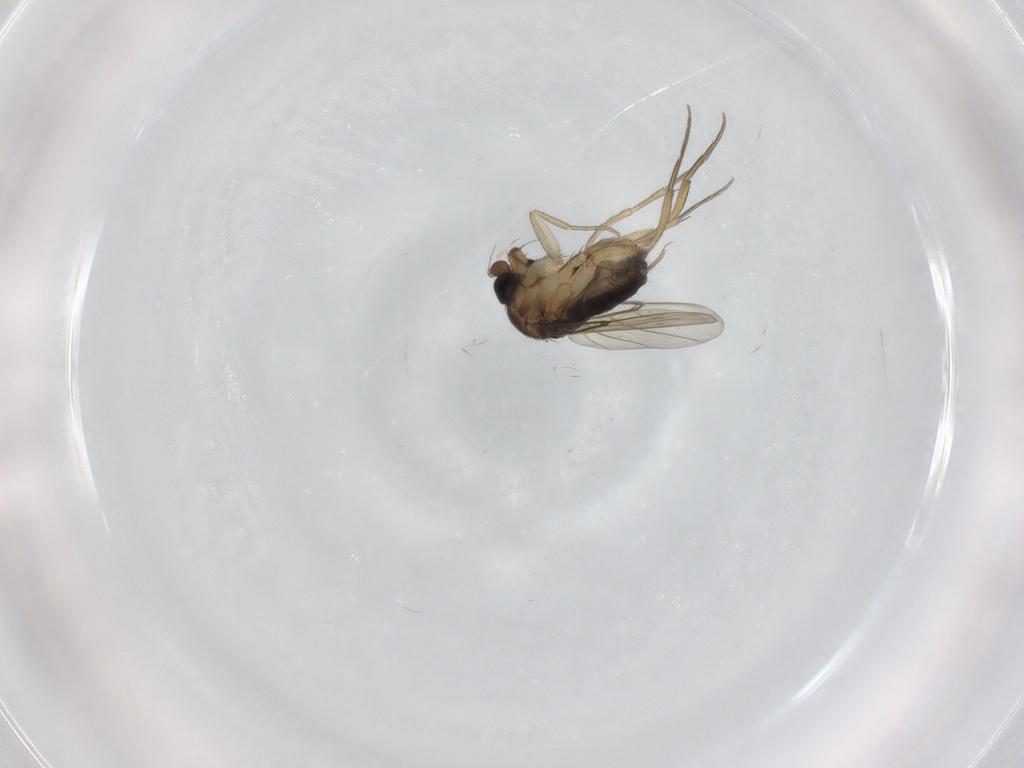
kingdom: Animalia
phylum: Arthropoda
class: Insecta
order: Diptera
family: Phoridae
